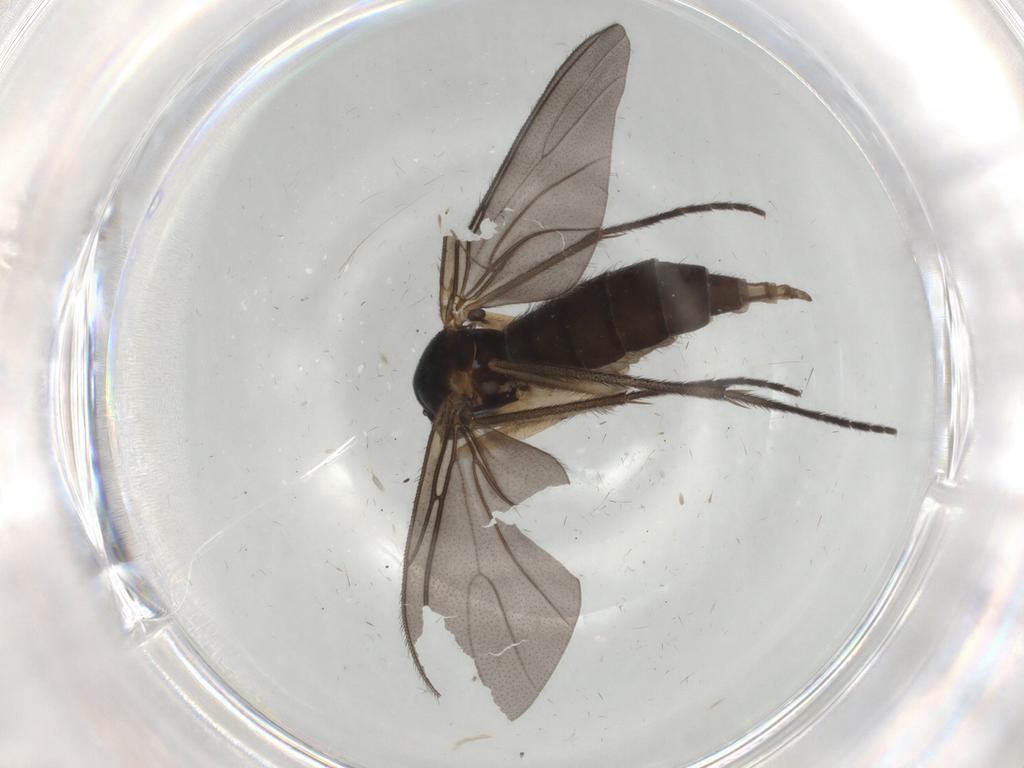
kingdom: Animalia
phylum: Arthropoda
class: Insecta
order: Diptera
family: Sciaridae
